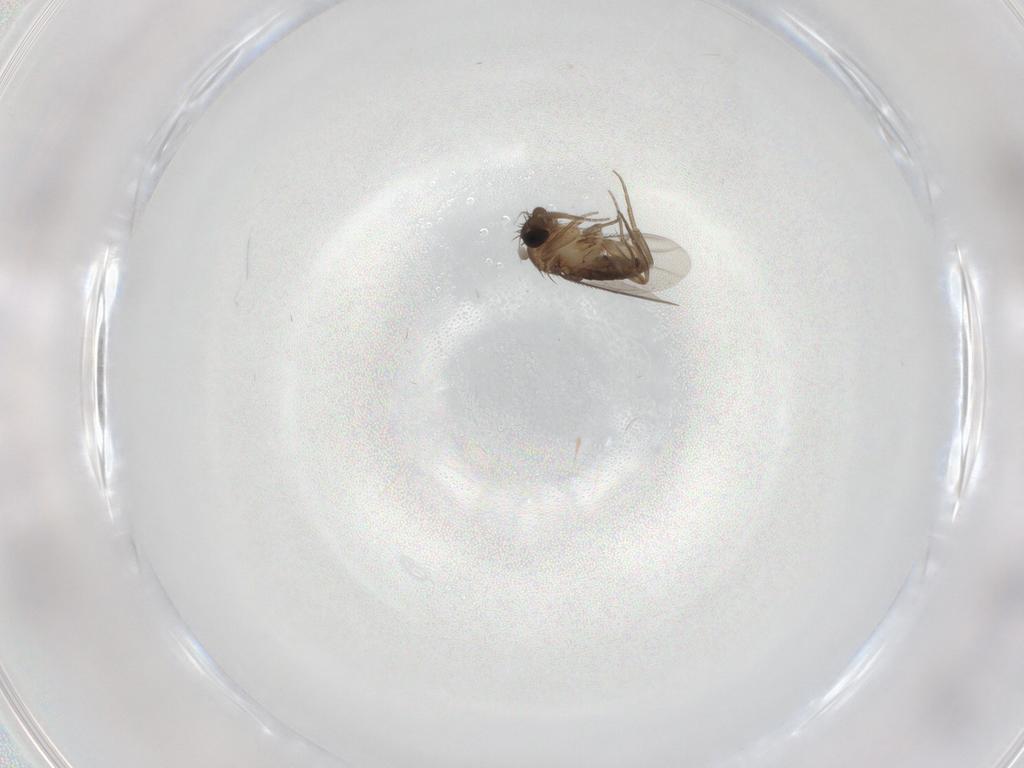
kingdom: Animalia
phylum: Arthropoda
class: Insecta
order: Diptera
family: Phoridae
